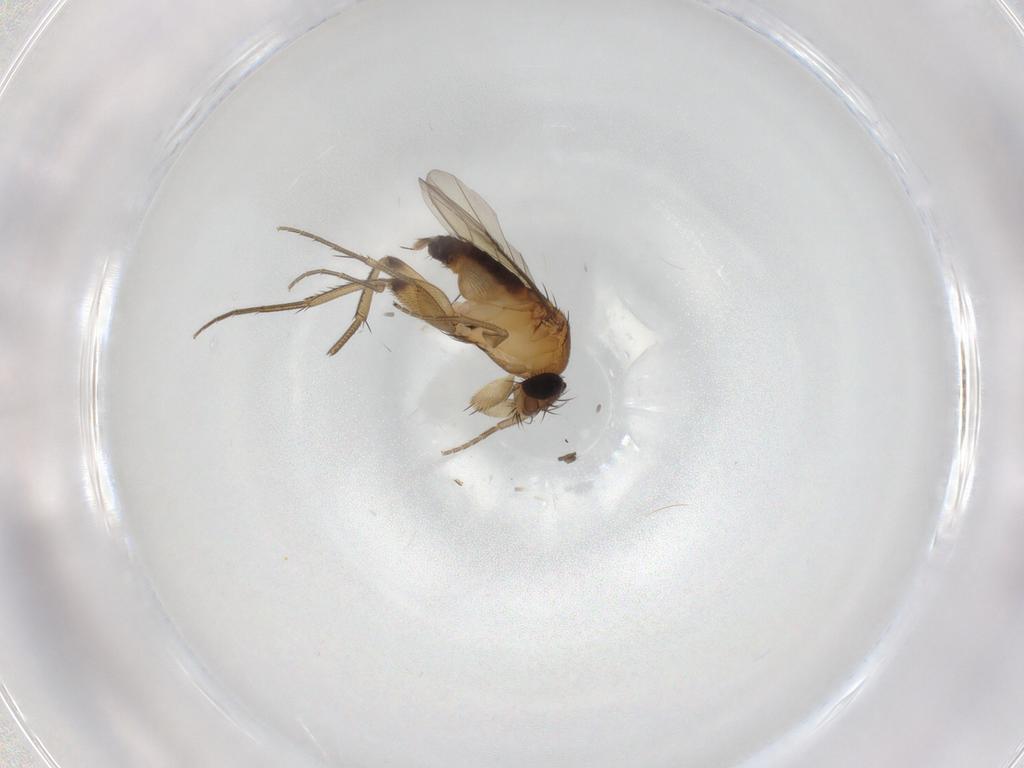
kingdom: Animalia
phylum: Arthropoda
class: Insecta
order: Diptera
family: Phoridae
